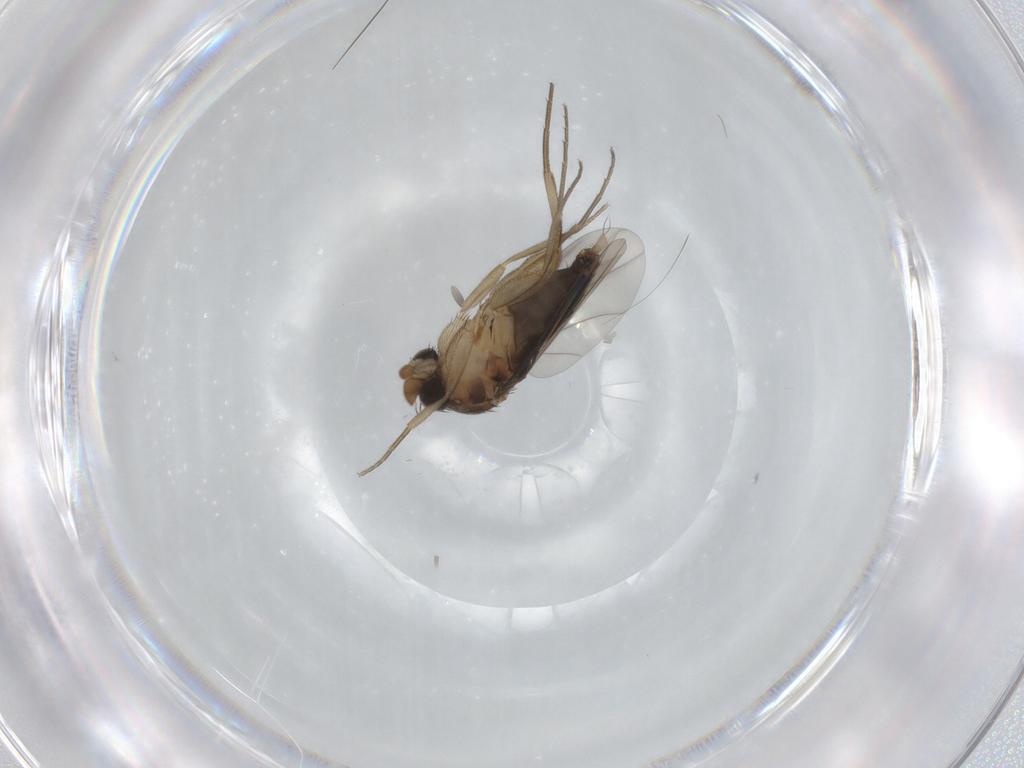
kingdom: Animalia
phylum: Arthropoda
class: Insecta
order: Diptera
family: Phoridae
